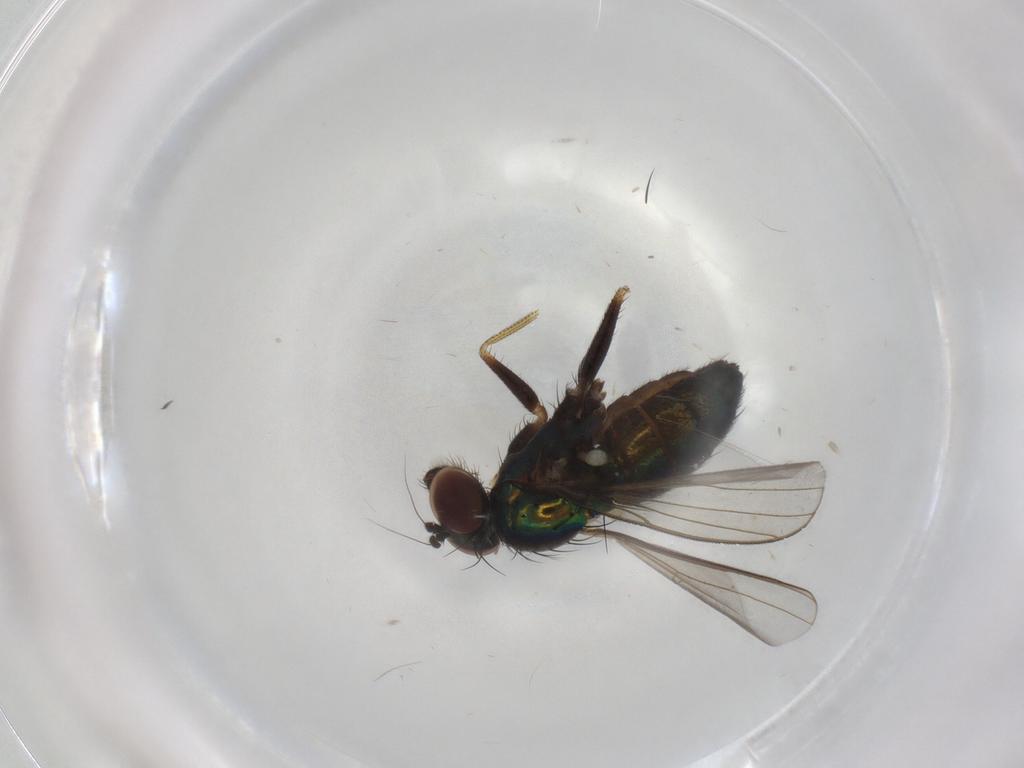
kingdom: Animalia
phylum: Arthropoda
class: Insecta
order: Diptera
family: Dolichopodidae
